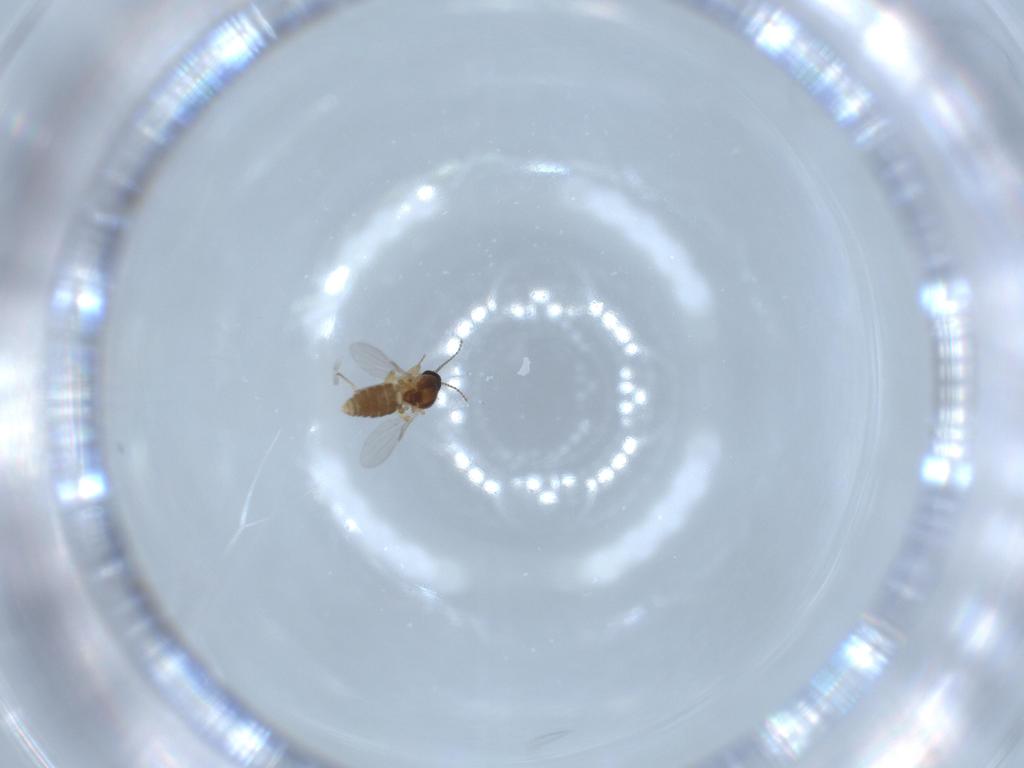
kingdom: Animalia
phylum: Arthropoda
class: Insecta
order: Diptera
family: Ceratopogonidae
